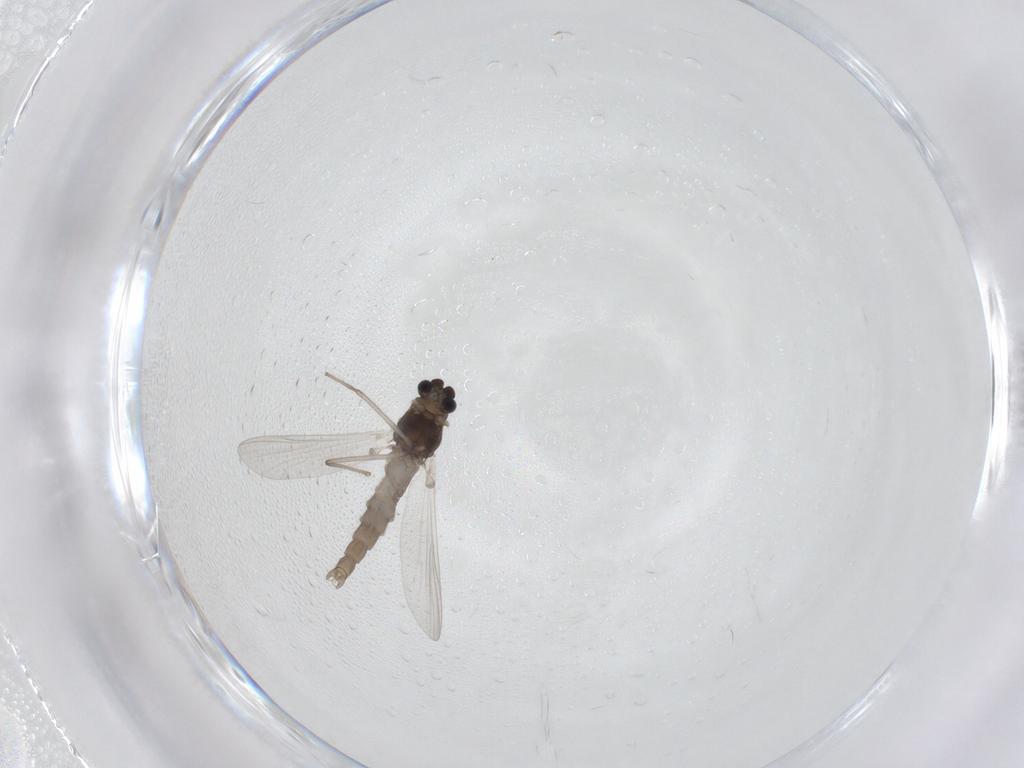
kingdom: Animalia
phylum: Arthropoda
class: Insecta
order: Diptera
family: Chironomidae
